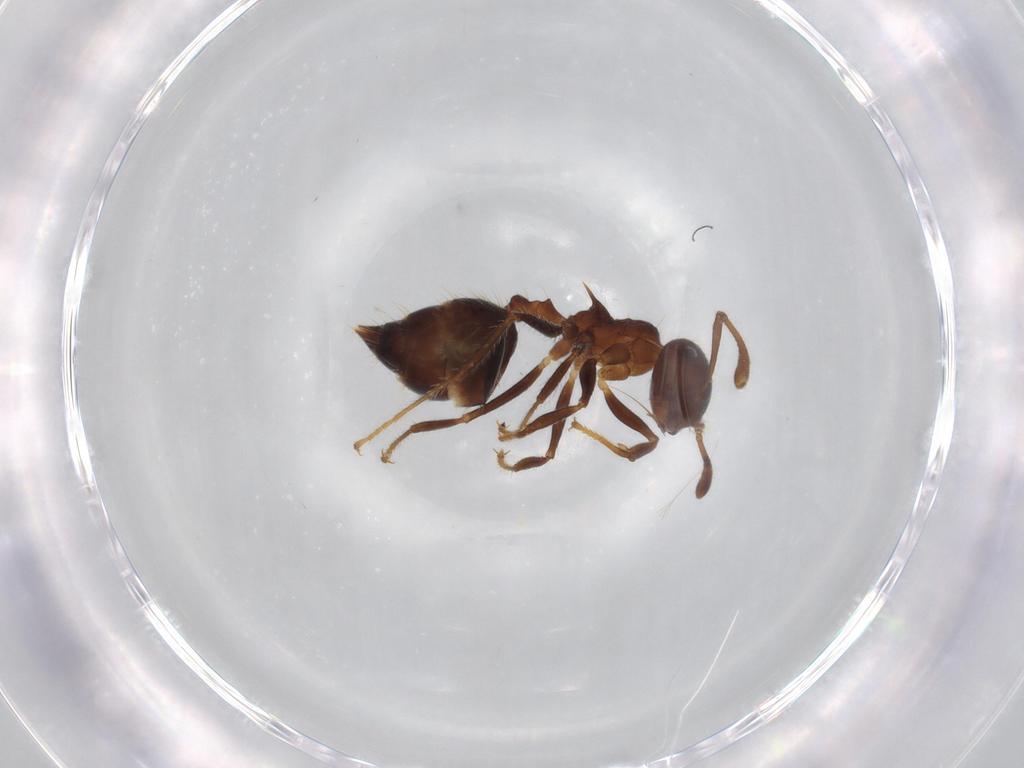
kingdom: Animalia
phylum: Arthropoda
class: Insecta
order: Hymenoptera
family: Formicidae
